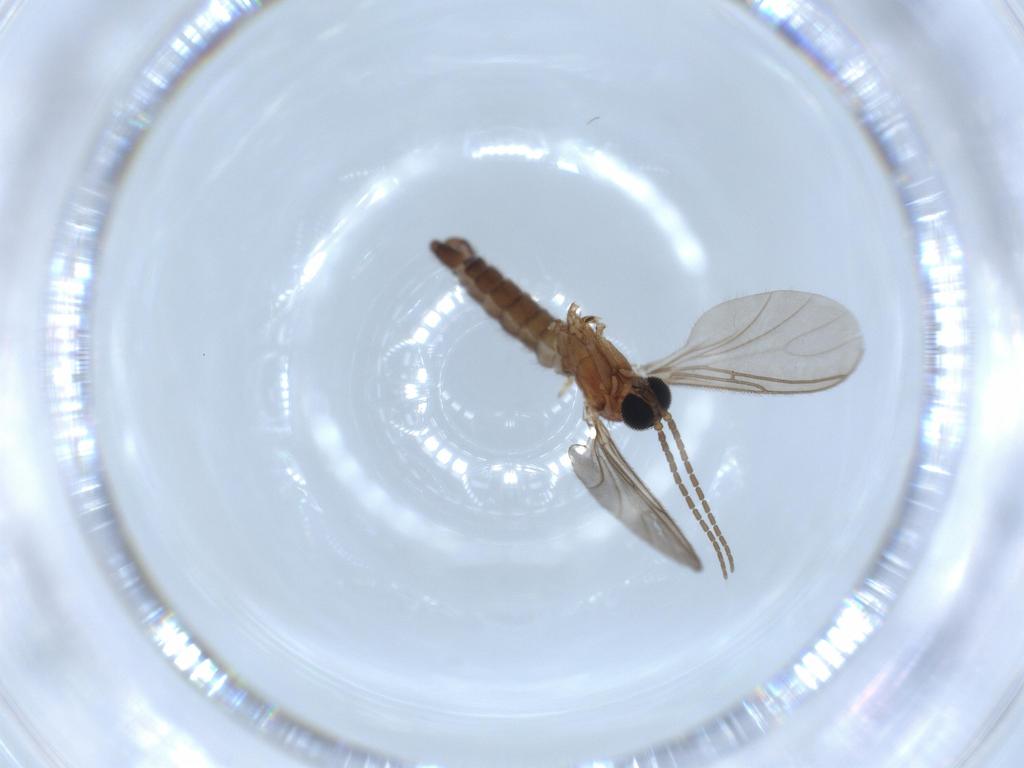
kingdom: Animalia
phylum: Arthropoda
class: Insecta
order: Diptera
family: Sciaridae
